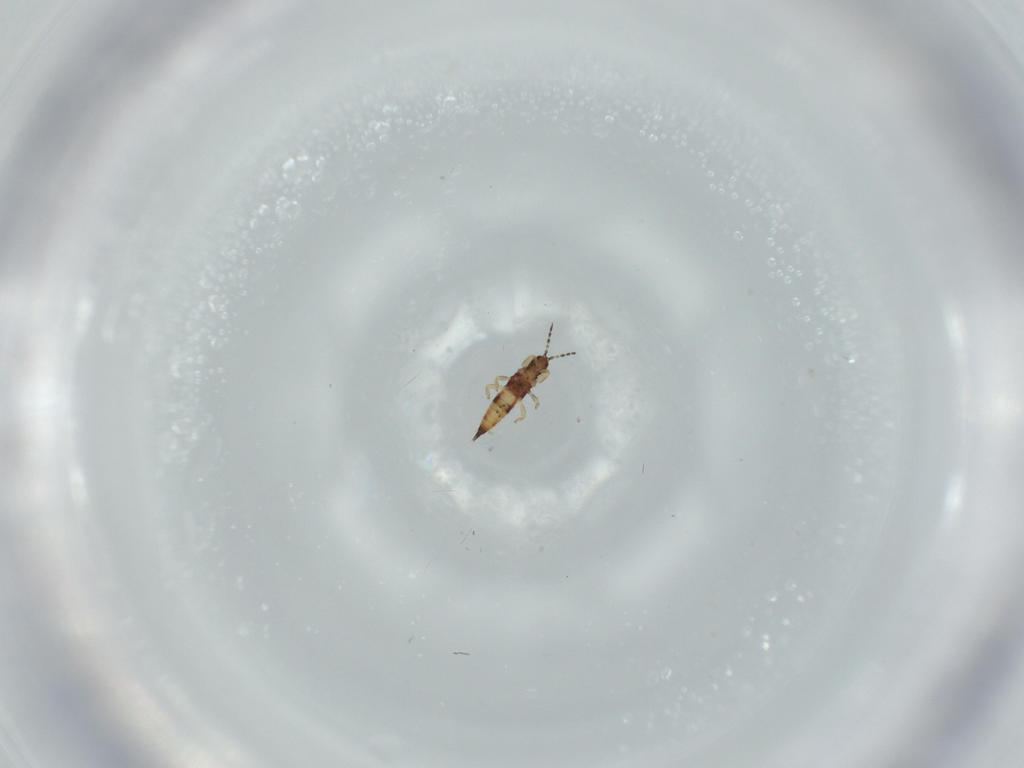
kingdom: Animalia
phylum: Arthropoda
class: Insecta
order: Thysanoptera
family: Phlaeothripidae
